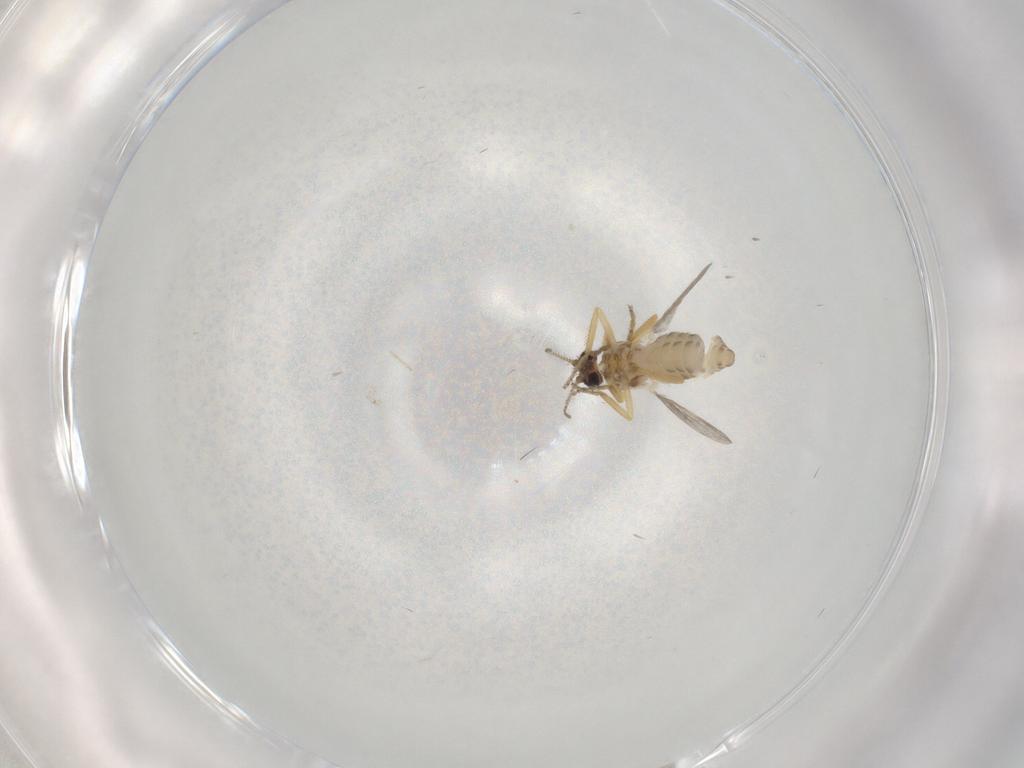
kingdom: Animalia
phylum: Arthropoda
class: Insecta
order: Diptera
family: Ceratopogonidae
